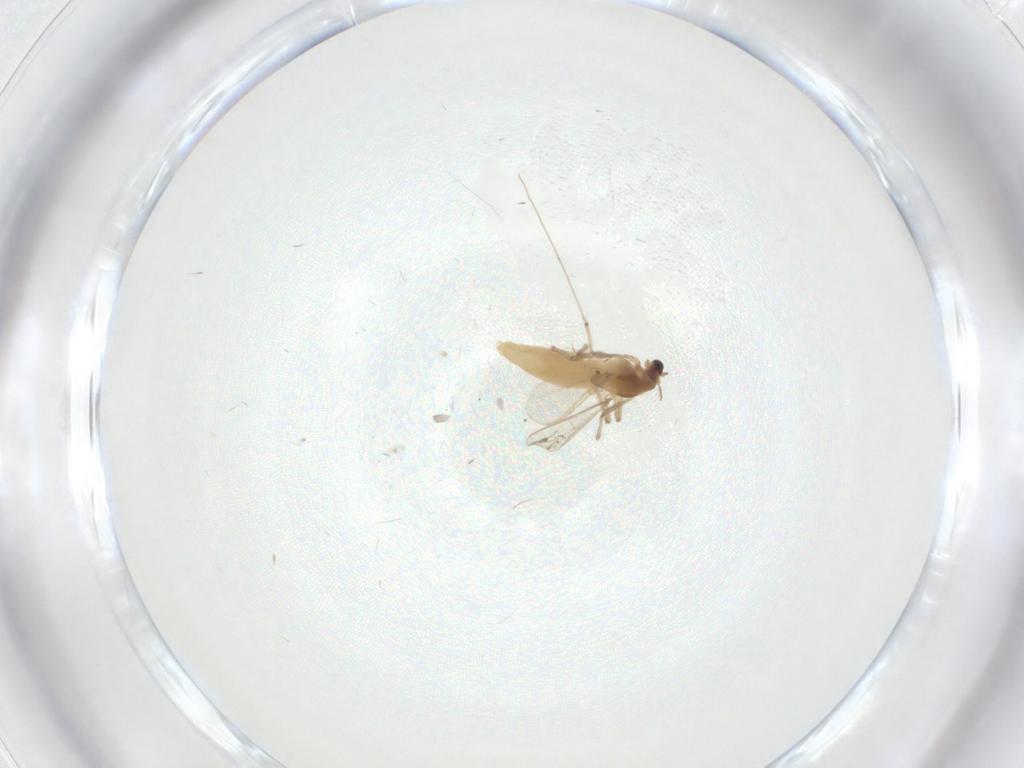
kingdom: Animalia
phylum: Arthropoda
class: Insecta
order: Diptera
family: Chironomidae
